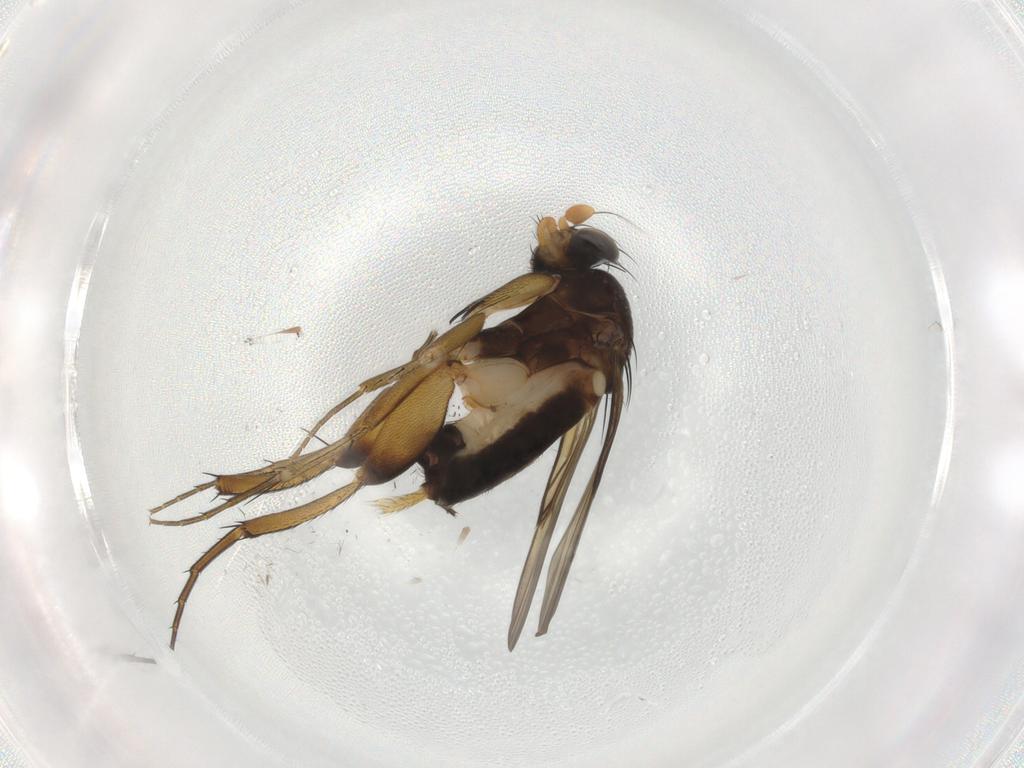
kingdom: Animalia
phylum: Arthropoda
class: Insecta
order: Diptera
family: Phoridae
